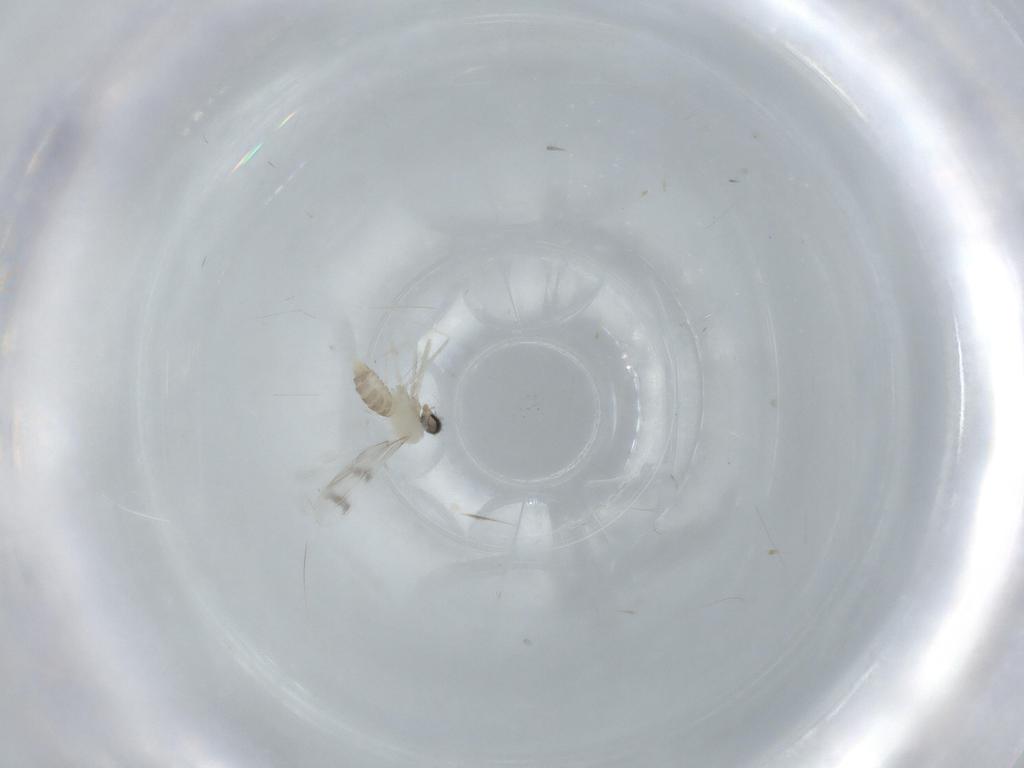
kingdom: Animalia
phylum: Arthropoda
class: Insecta
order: Diptera
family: Cecidomyiidae
